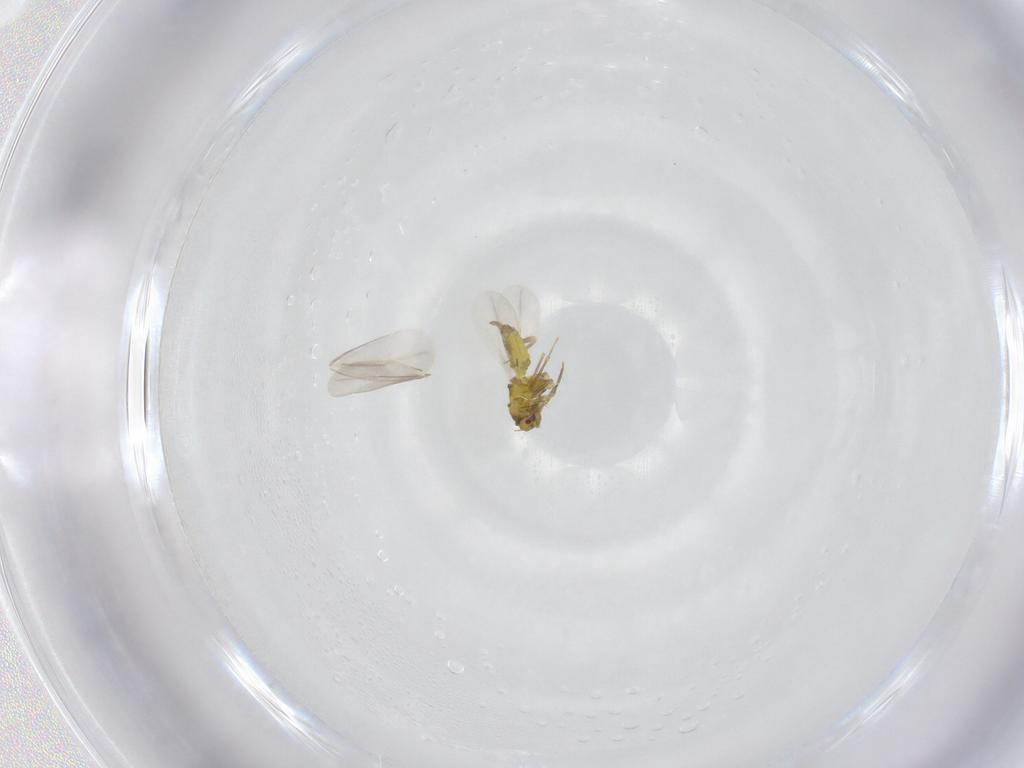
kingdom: Animalia
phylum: Arthropoda
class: Insecta
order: Hemiptera
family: Aleyrodidae
